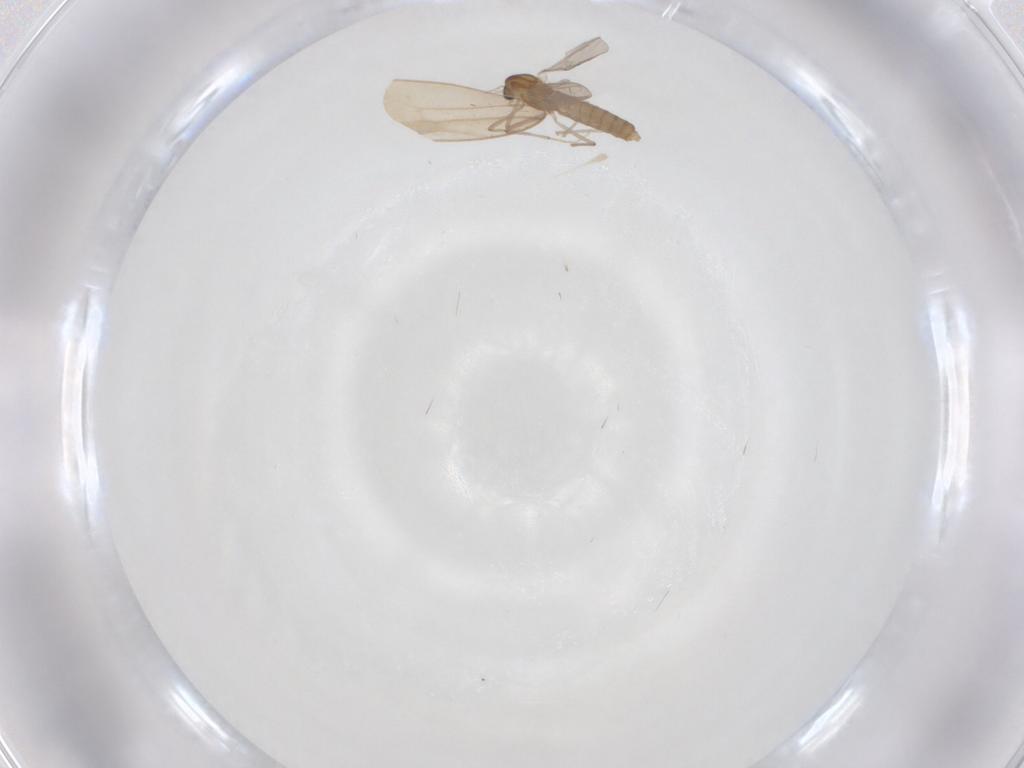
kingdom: Animalia
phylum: Arthropoda
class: Insecta
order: Diptera
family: Chironomidae
